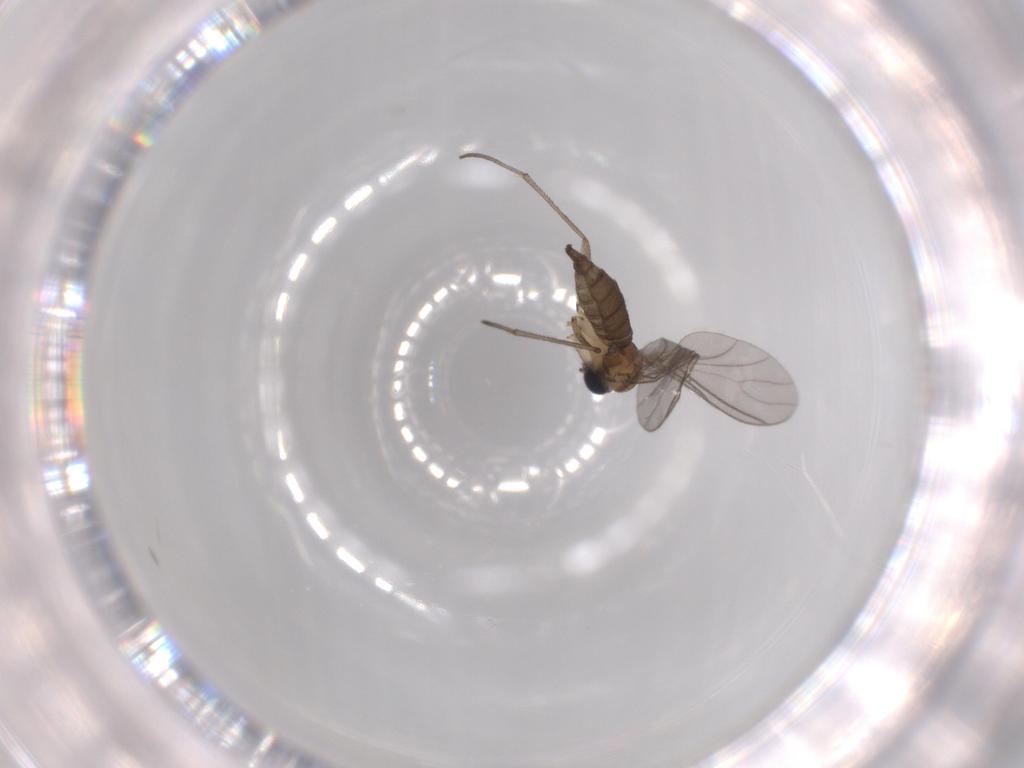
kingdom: Animalia
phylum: Arthropoda
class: Insecta
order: Diptera
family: Sciaridae
